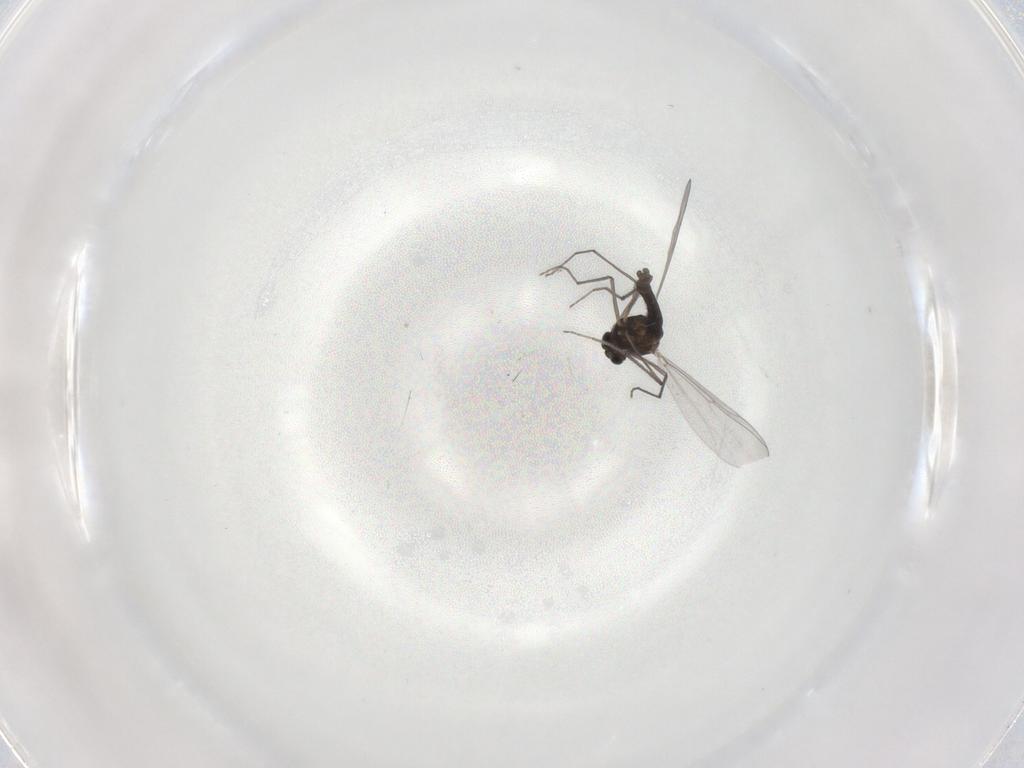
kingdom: Animalia
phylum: Arthropoda
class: Insecta
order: Diptera
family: Chironomidae
